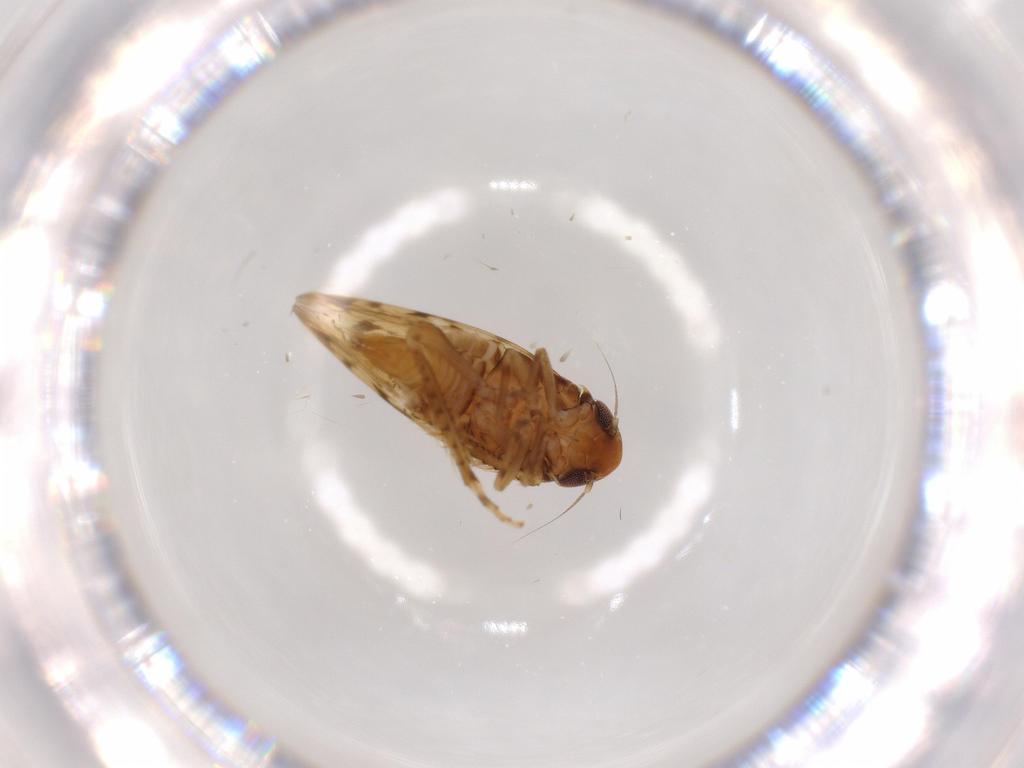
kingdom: Animalia
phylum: Arthropoda
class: Insecta
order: Hemiptera
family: Cicadellidae
